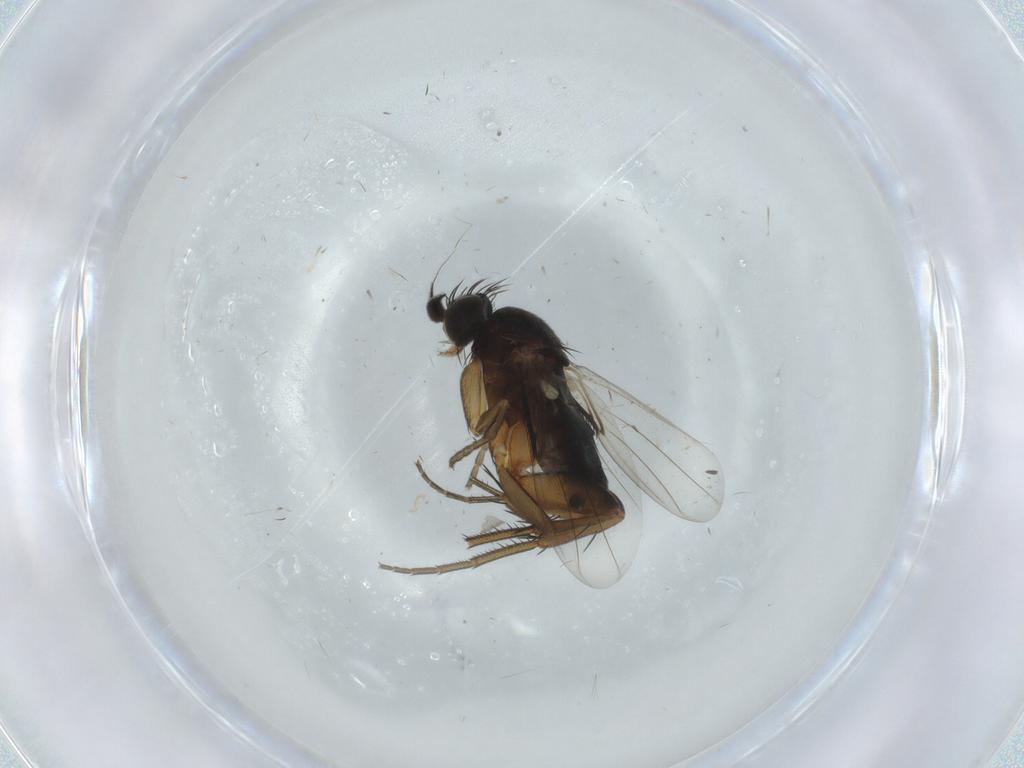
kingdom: Animalia
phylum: Arthropoda
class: Insecta
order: Diptera
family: Phoridae
